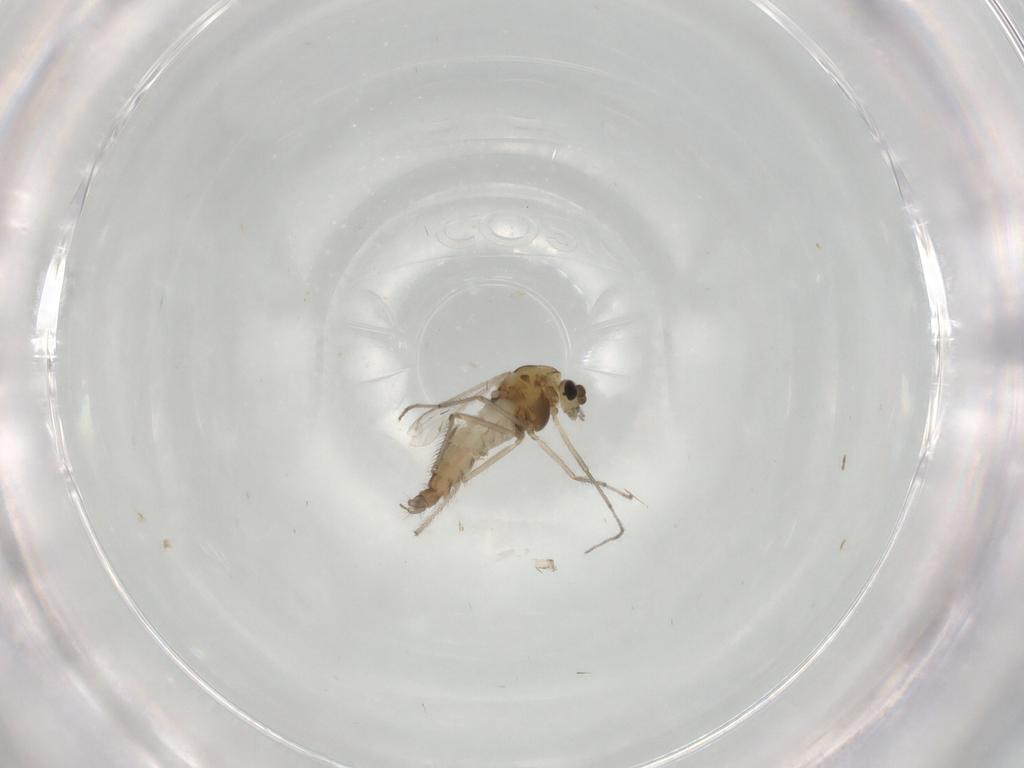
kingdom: Animalia
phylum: Arthropoda
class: Insecta
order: Diptera
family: Chironomidae
